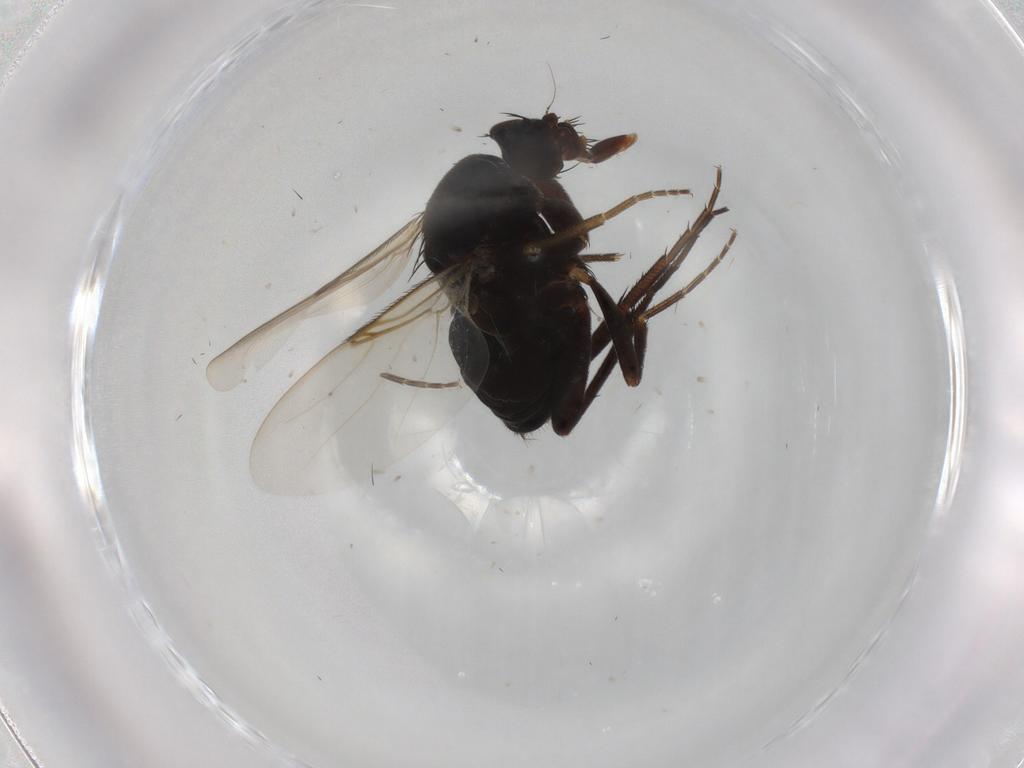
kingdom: Animalia
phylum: Arthropoda
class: Insecta
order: Diptera
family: Phoridae
